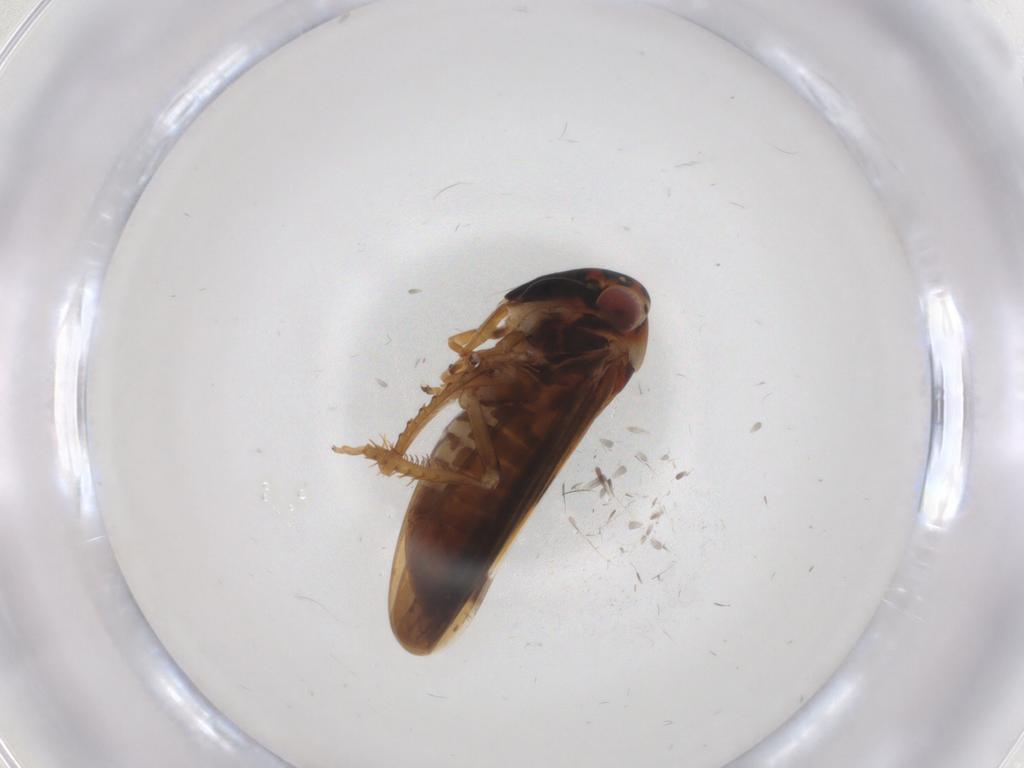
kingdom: Animalia
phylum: Arthropoda
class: Insecta
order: Hemiptera
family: Cicadellidae
